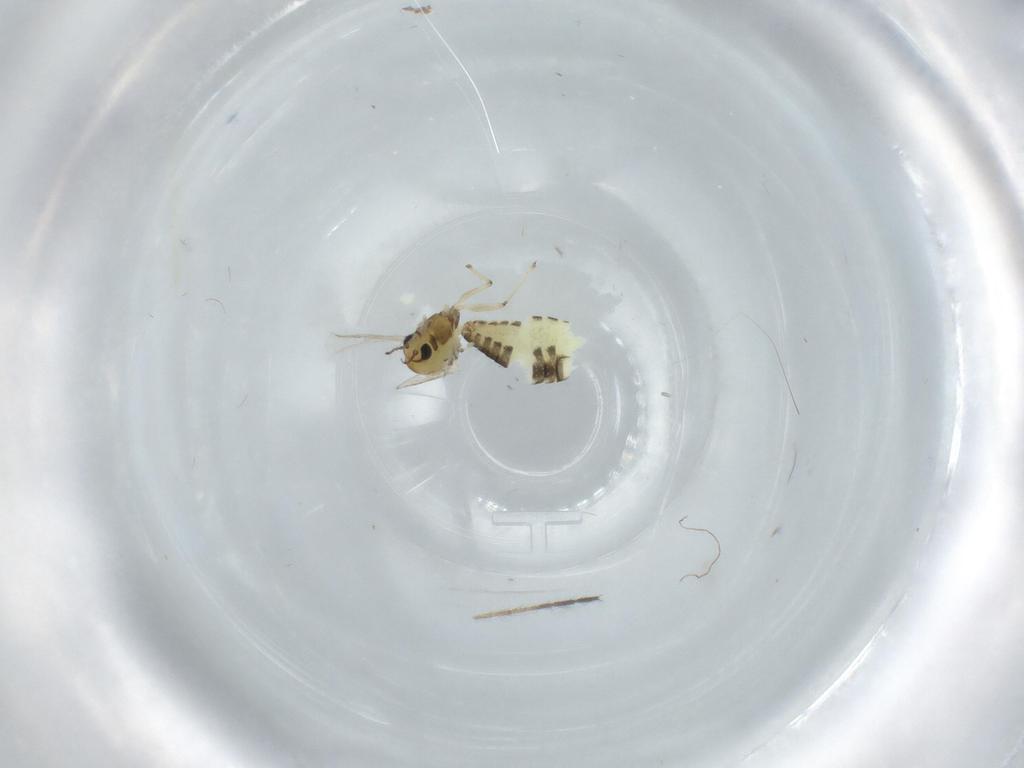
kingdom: Animalia
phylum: Arthropoda
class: Insecta
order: Diptera
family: Chironomidae
